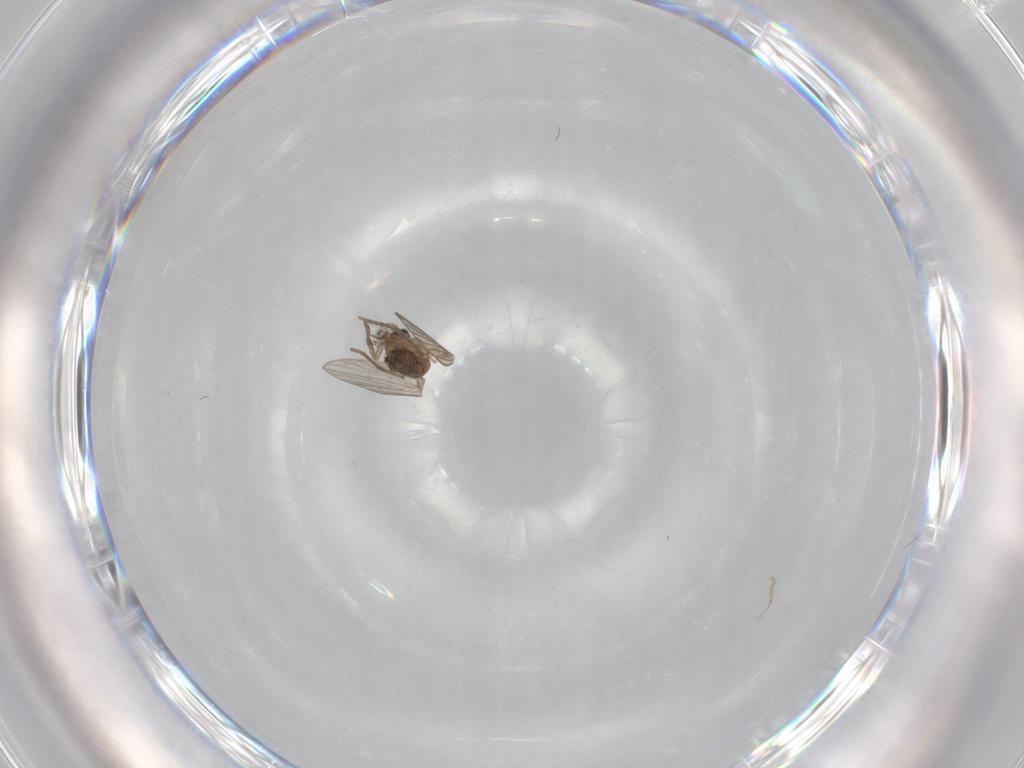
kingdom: Animalia
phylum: Arthropoda
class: Insecta
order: Diptera
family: Psychodidae
